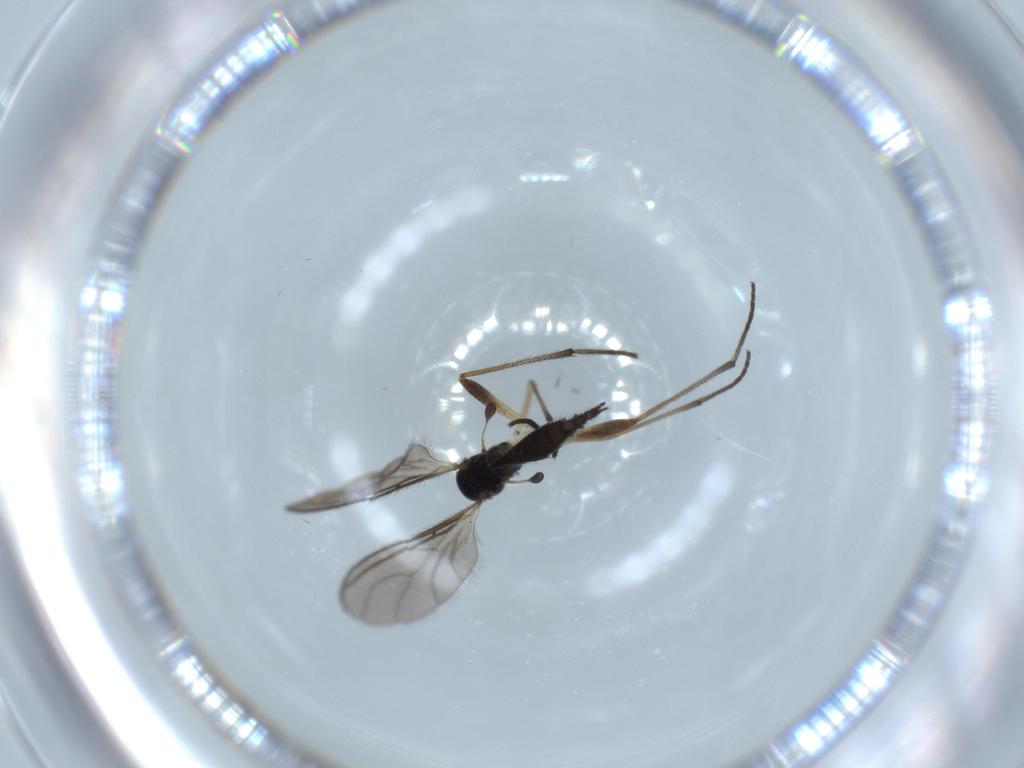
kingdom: Animalia
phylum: Arthropoda
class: Insecta
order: Diptera
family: Sciaridae
